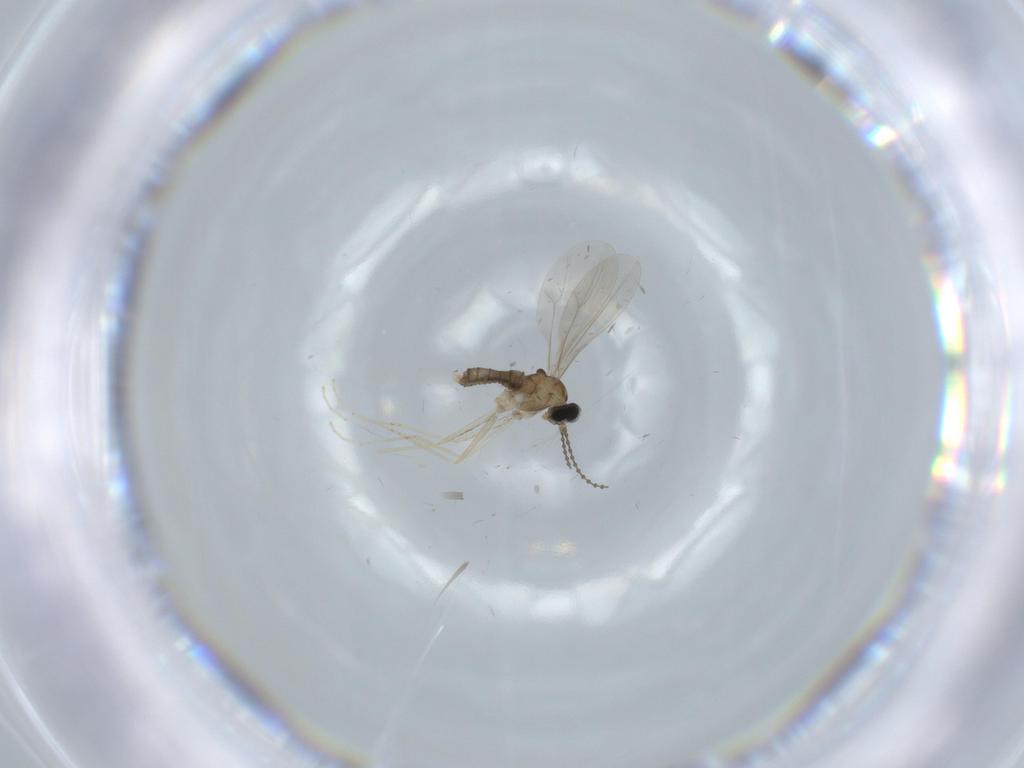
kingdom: Animalia
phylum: Arthropoda
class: Insecta
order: Diptera
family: Phoridae
